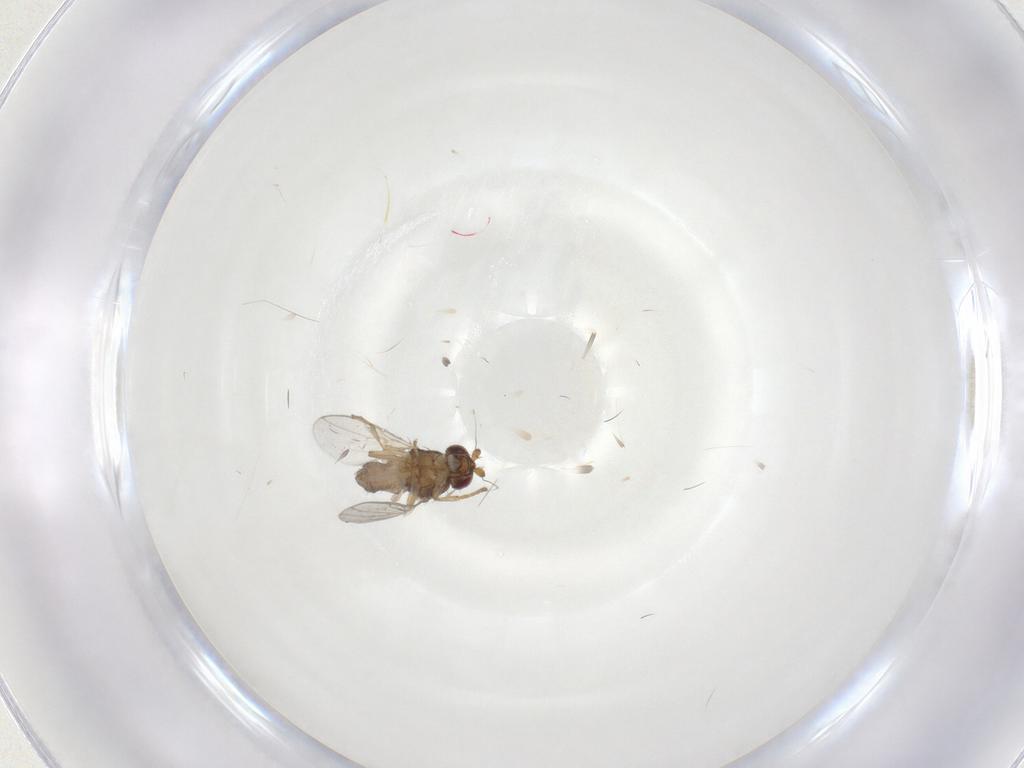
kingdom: Animalia
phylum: Arthropoda
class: Insecta
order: Diptera
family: Sphaeroceridae
